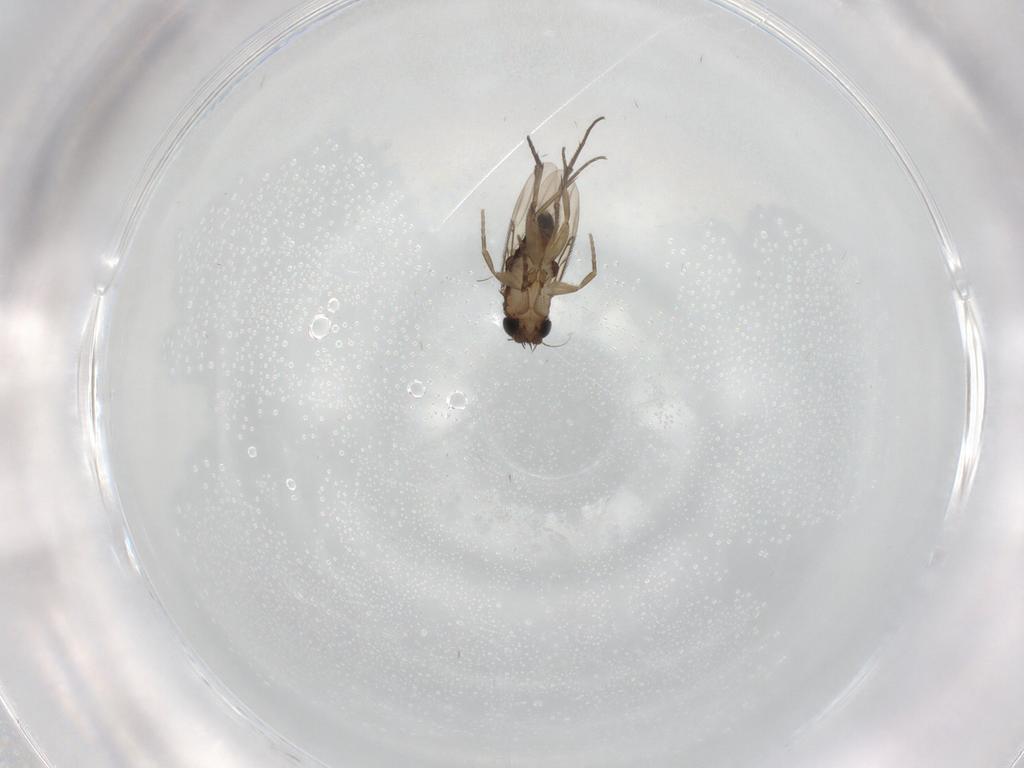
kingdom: Animalia
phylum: Arthropoda
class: Insecta
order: Diptera
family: Phoridae
